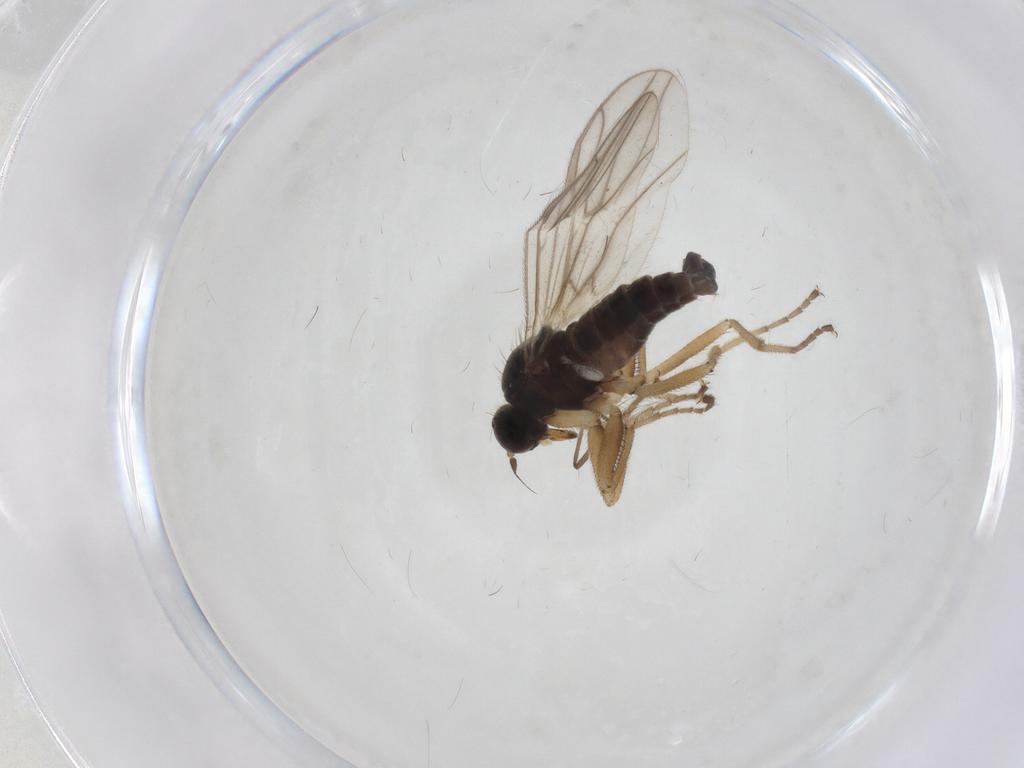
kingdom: Animalia
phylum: Arthropoda
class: Insecta
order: Diptera
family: Hybotidae
